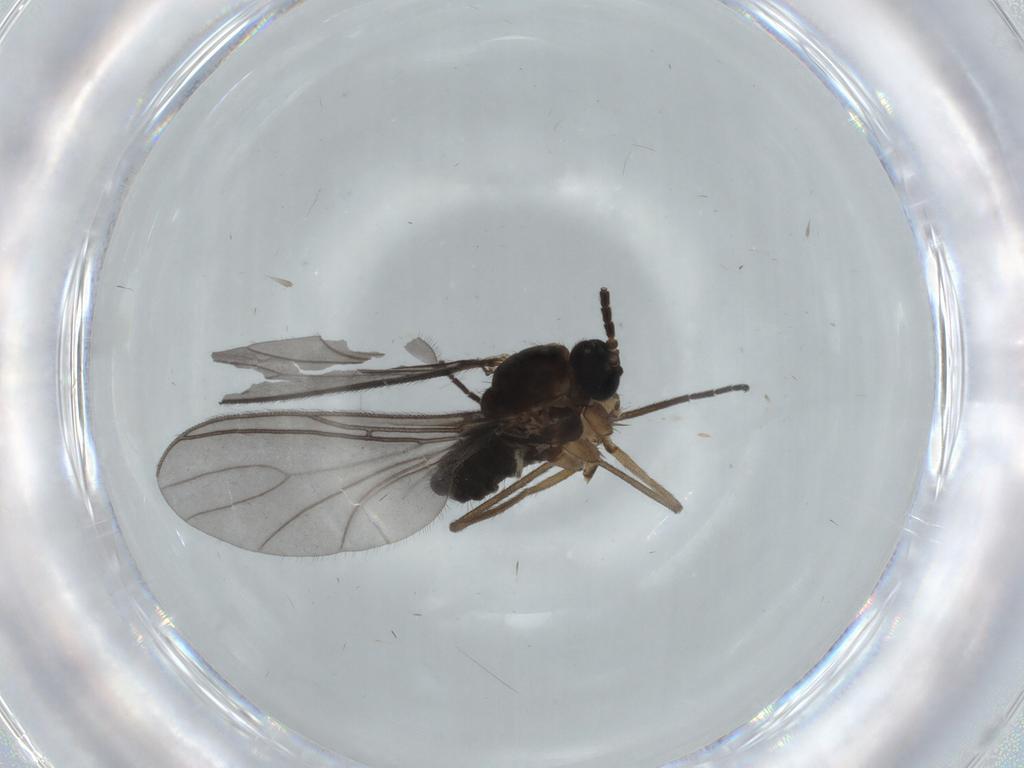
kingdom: Animalia
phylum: Arthropoda
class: Insecta
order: Diptera
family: Sciaridae
